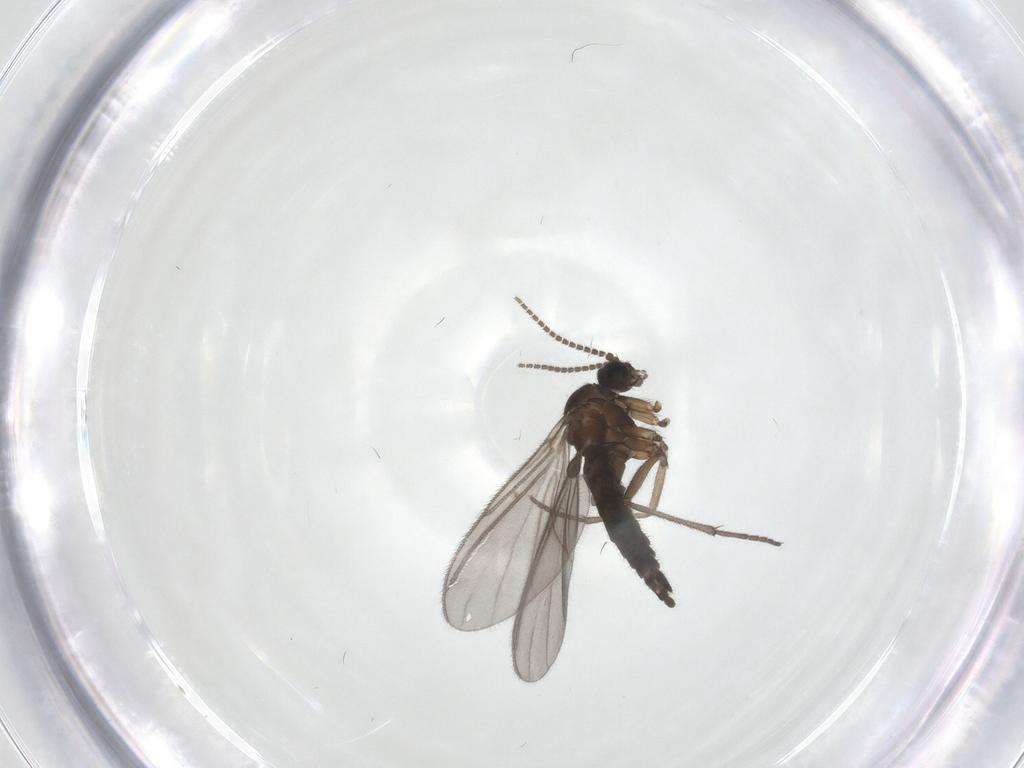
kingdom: Animalia
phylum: Arthropoda
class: Insecta
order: Diptera
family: Sciaridae
